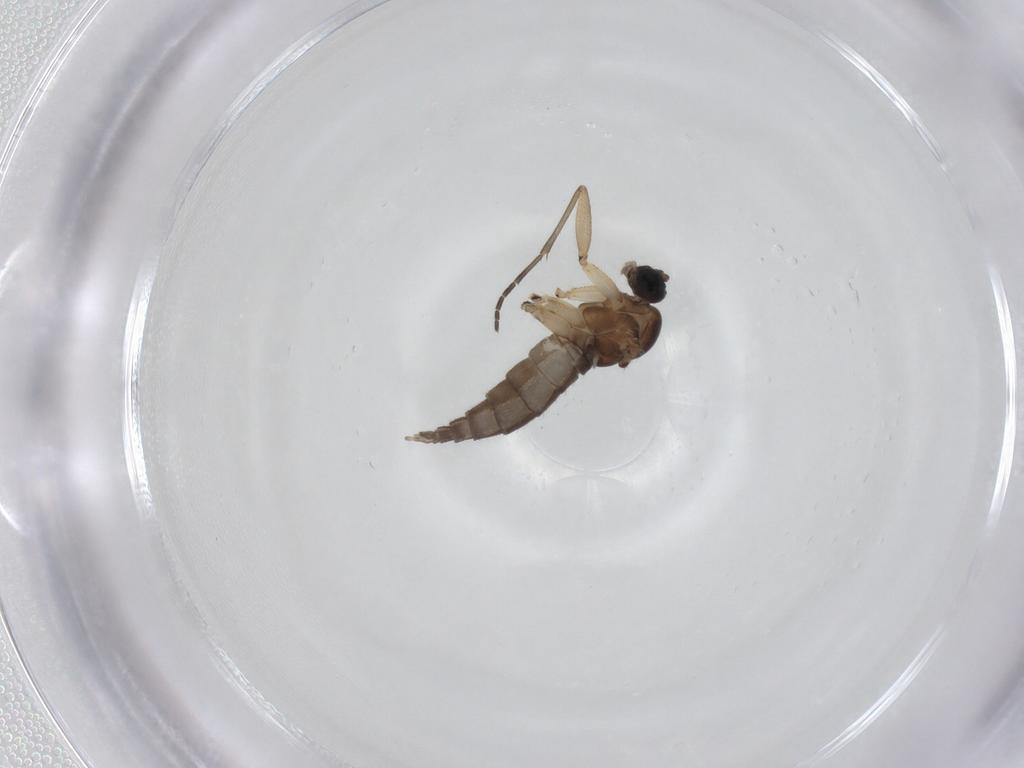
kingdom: Animalia
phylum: Arthropoda
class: Insecta
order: Diptera
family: Sciaridae
